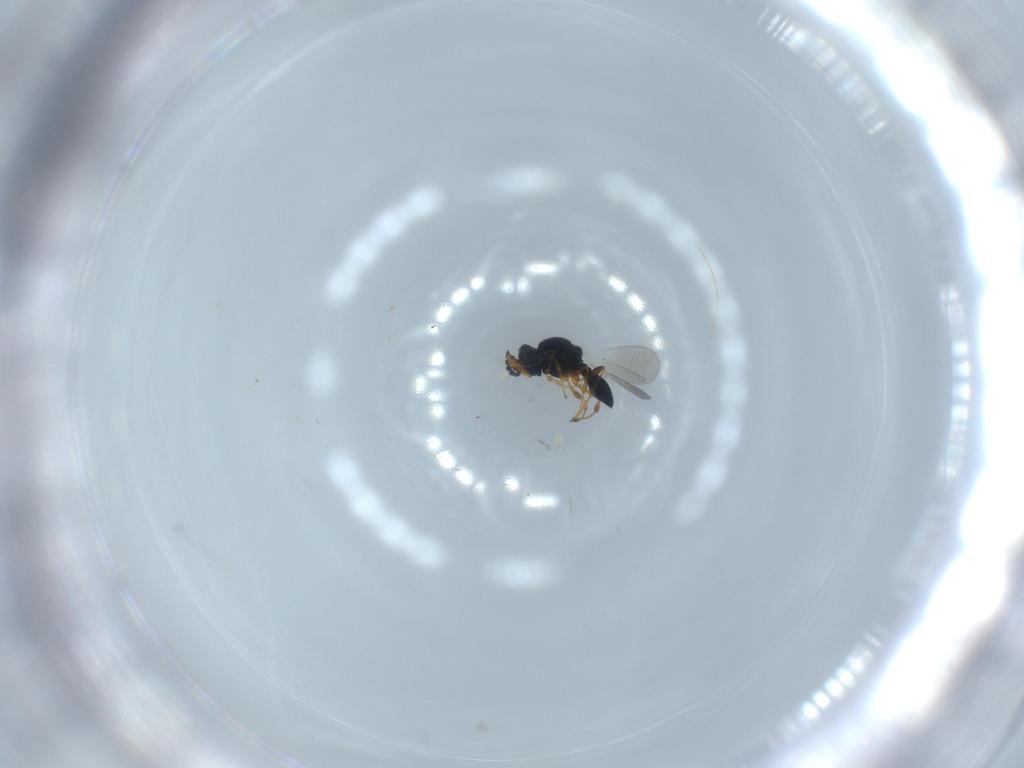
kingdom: Animalia
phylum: Arthropoda
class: Insecta
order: Hymenoptera
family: Platygastridae
